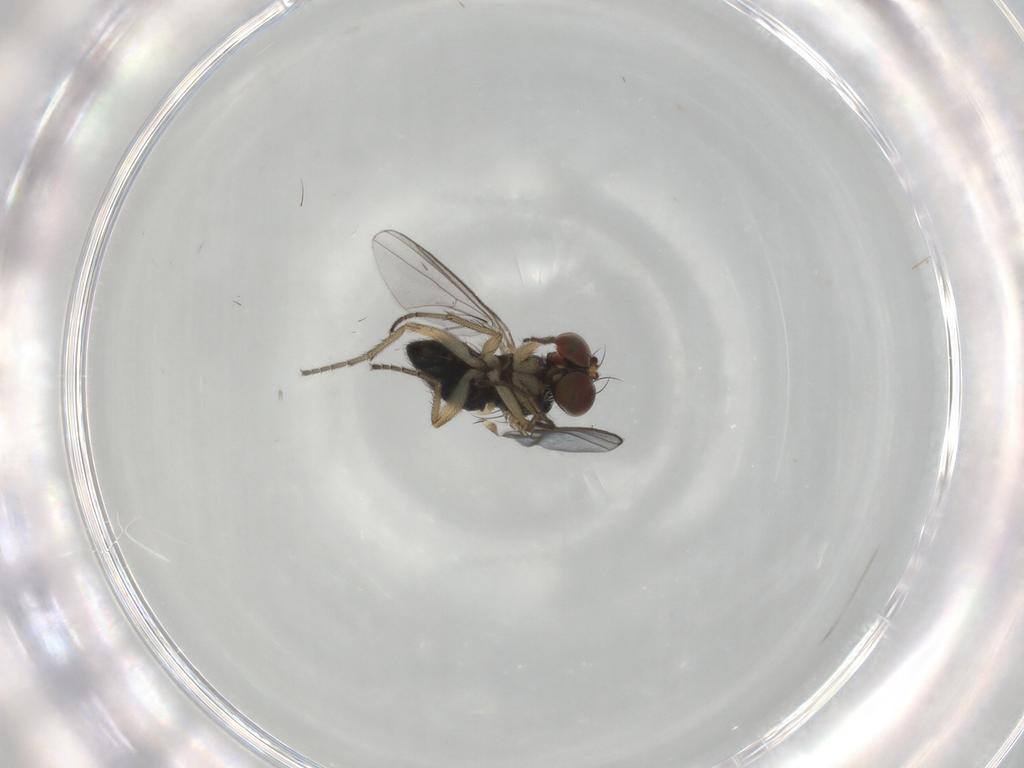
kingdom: Animalia
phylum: Arthropoda
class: Insecta
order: Diptera
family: Dolichopodidae
